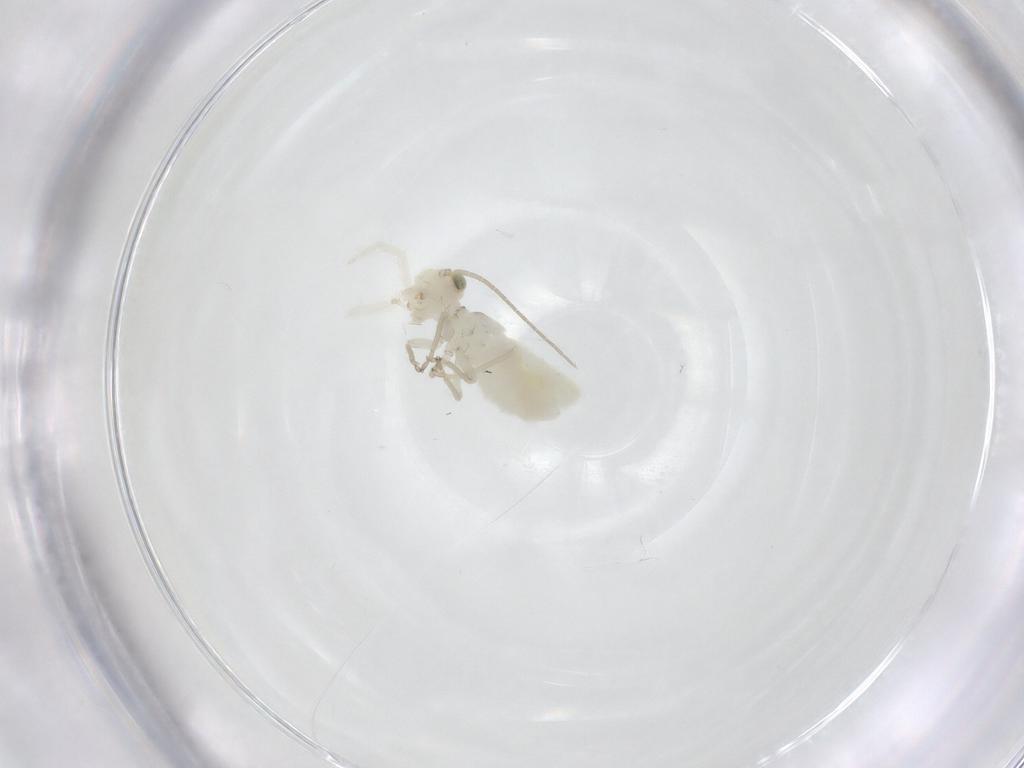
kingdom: Animalia
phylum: Arthropoda
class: Insecta
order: Psocodea
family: Caeciliusidae
